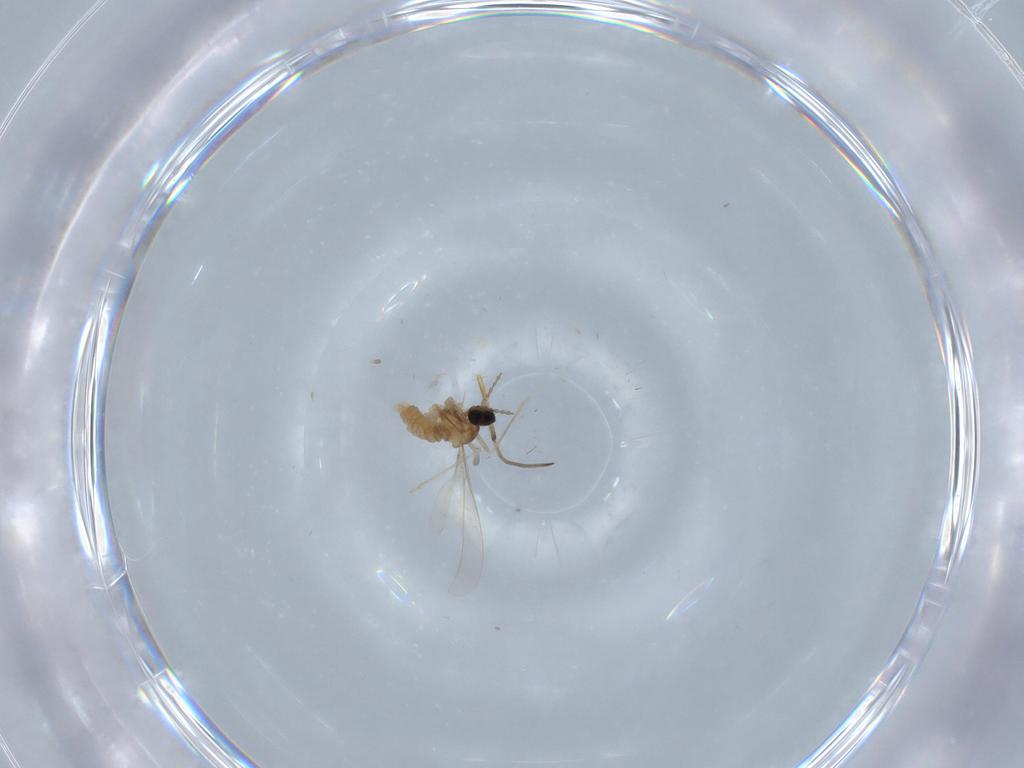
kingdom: Animalia
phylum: Arthropoda
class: Insecta
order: Diptera
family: Cecidomyiidae
